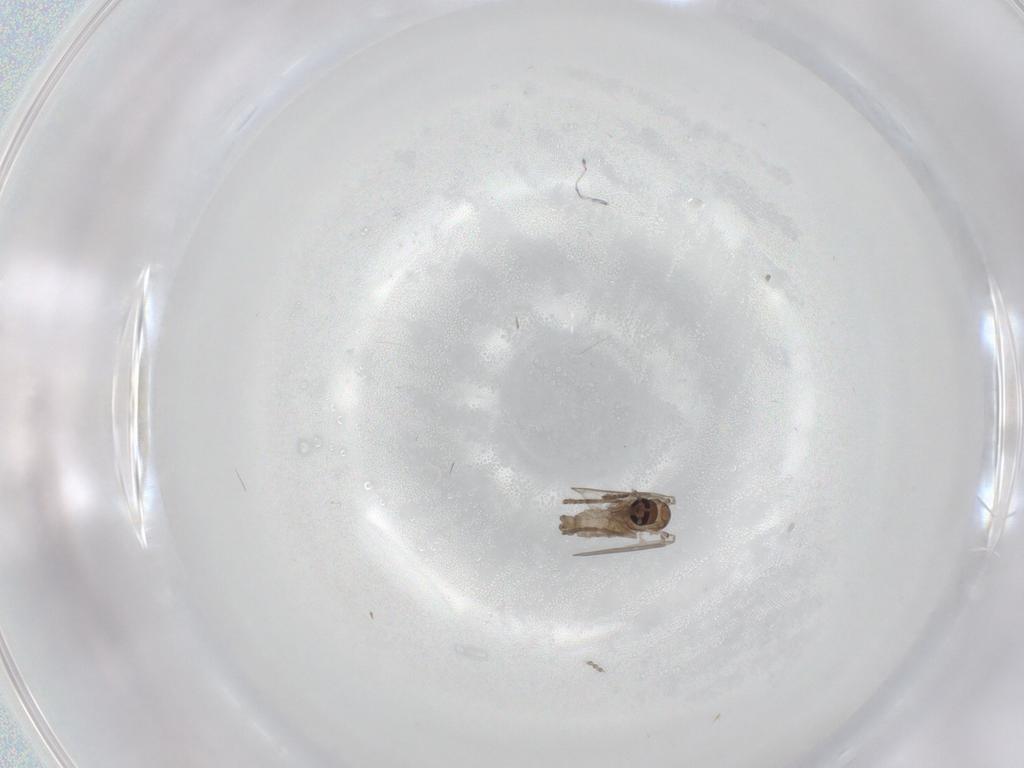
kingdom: Animalia
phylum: Arthropoda
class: Insecta
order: Diptera
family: Psychodidae
